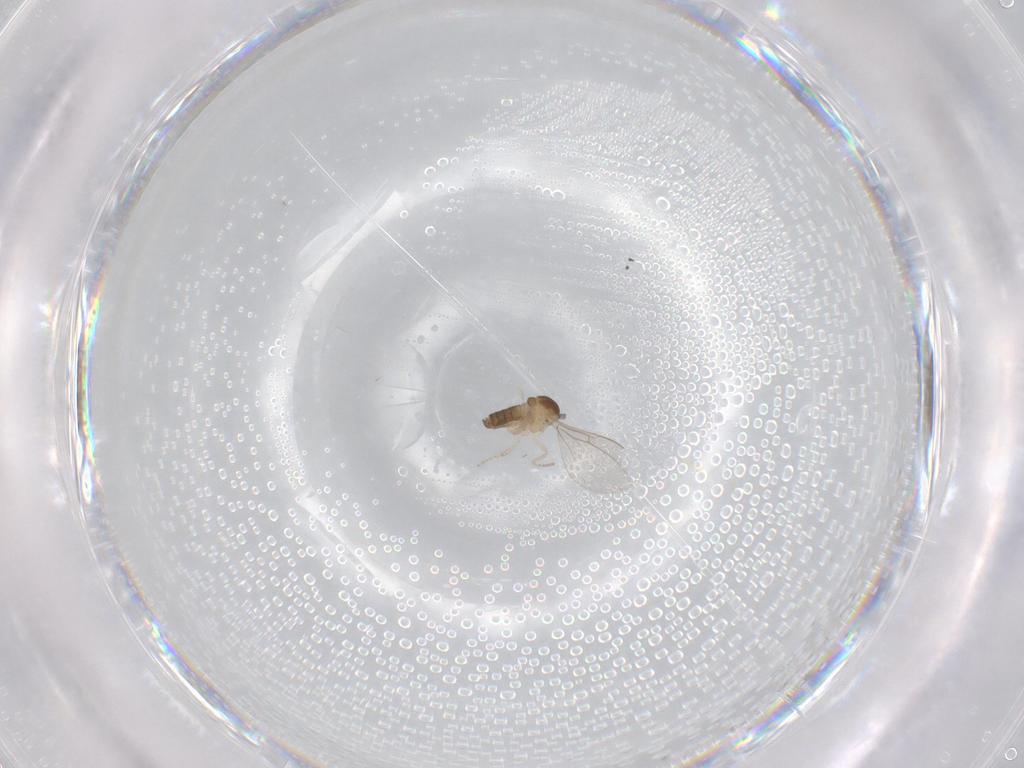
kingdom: Animalia
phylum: Arthropoda
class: Insecta
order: Diptera
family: Cecidomyiidae
